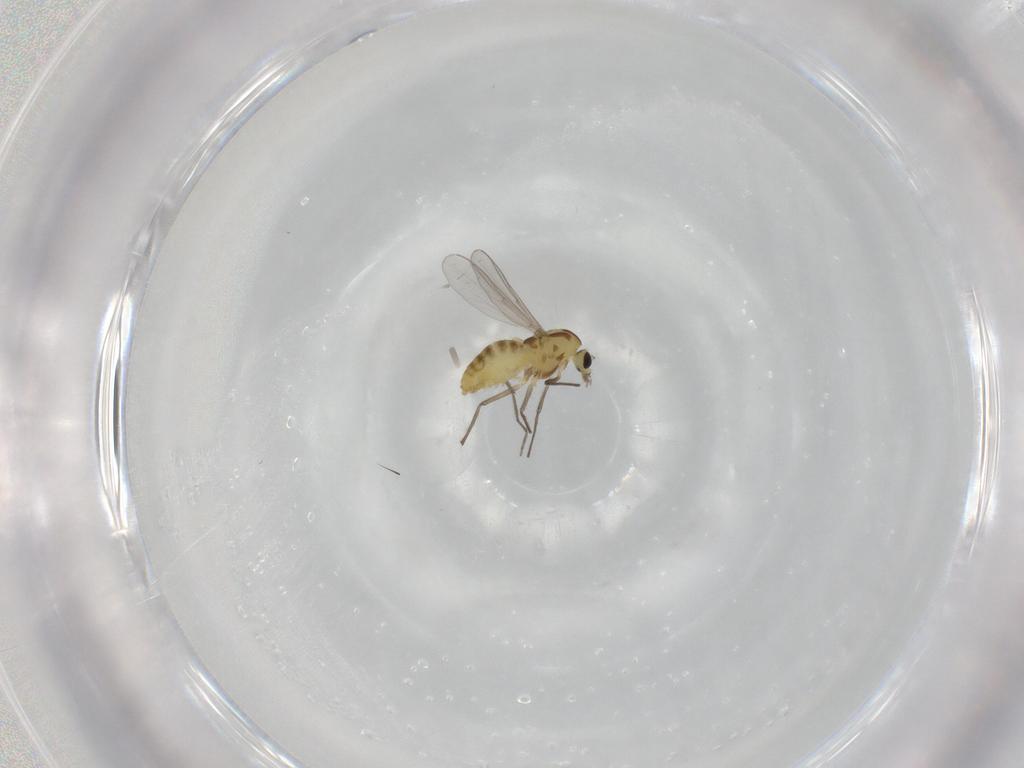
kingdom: Animalia
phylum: Arthropoda
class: Insecta
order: Diptera
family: Chironomidae
